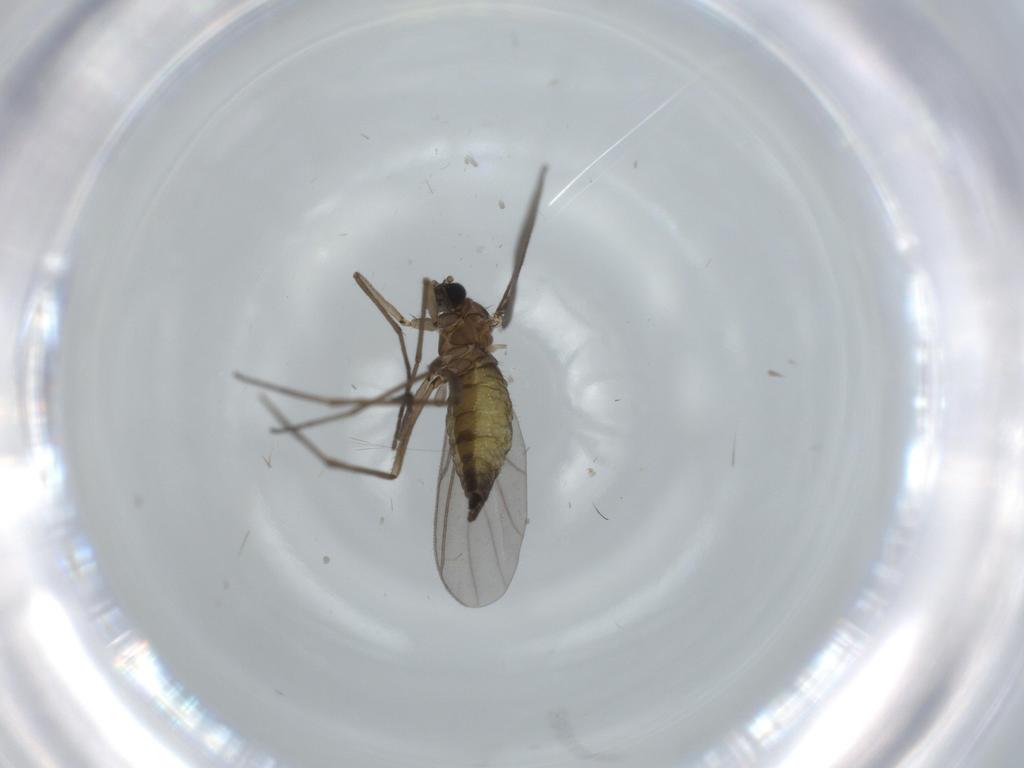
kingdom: Animalia
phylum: Arthropoda
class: Insecta
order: Diptera
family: Sciaridae
